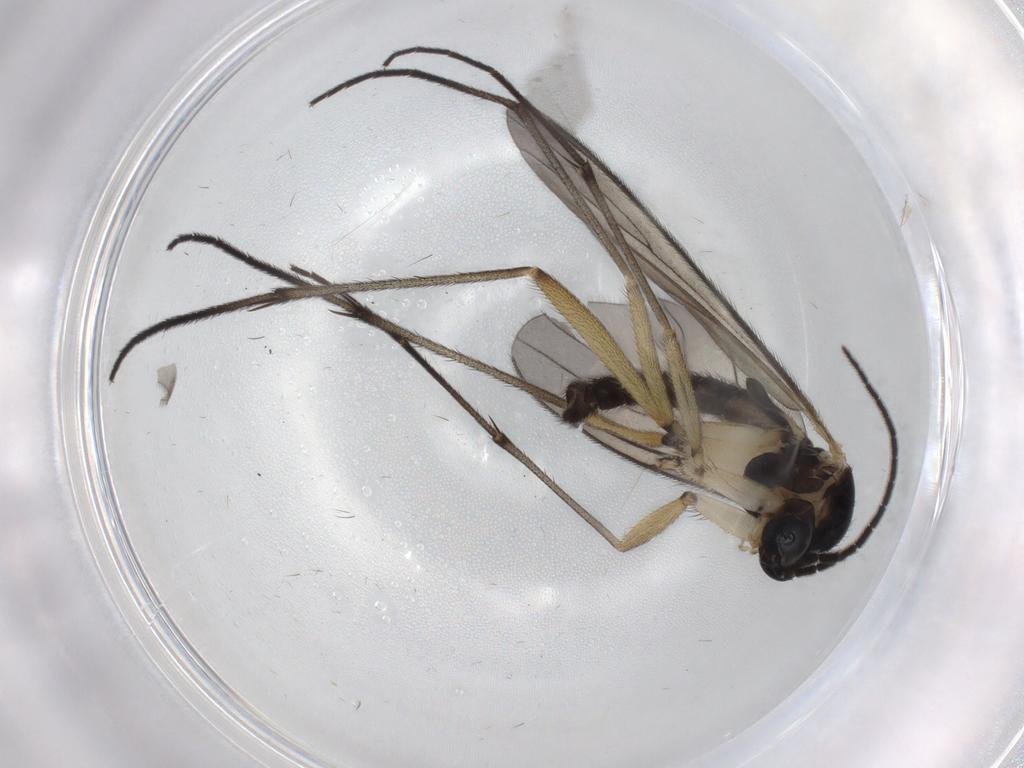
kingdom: Animalia
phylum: Arthropoda
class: Insecta
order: Diptera
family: Sciaridae
